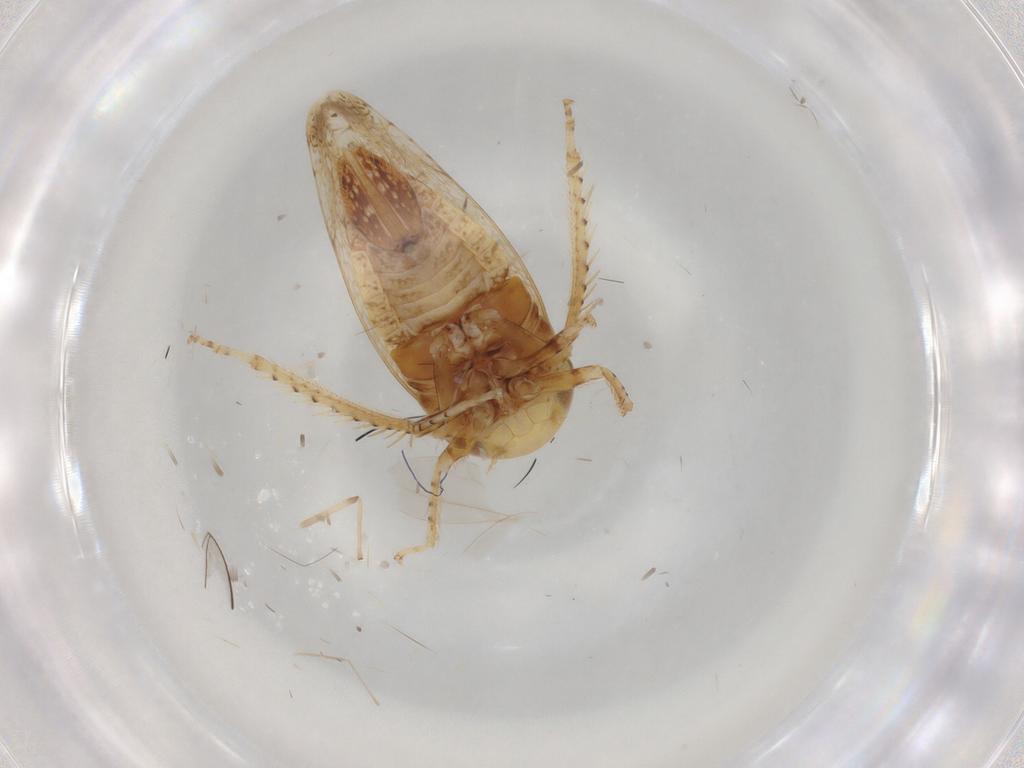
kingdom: Animalia
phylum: Arthropoda
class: Insecta
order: Hemiptera
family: Cicadellidae
